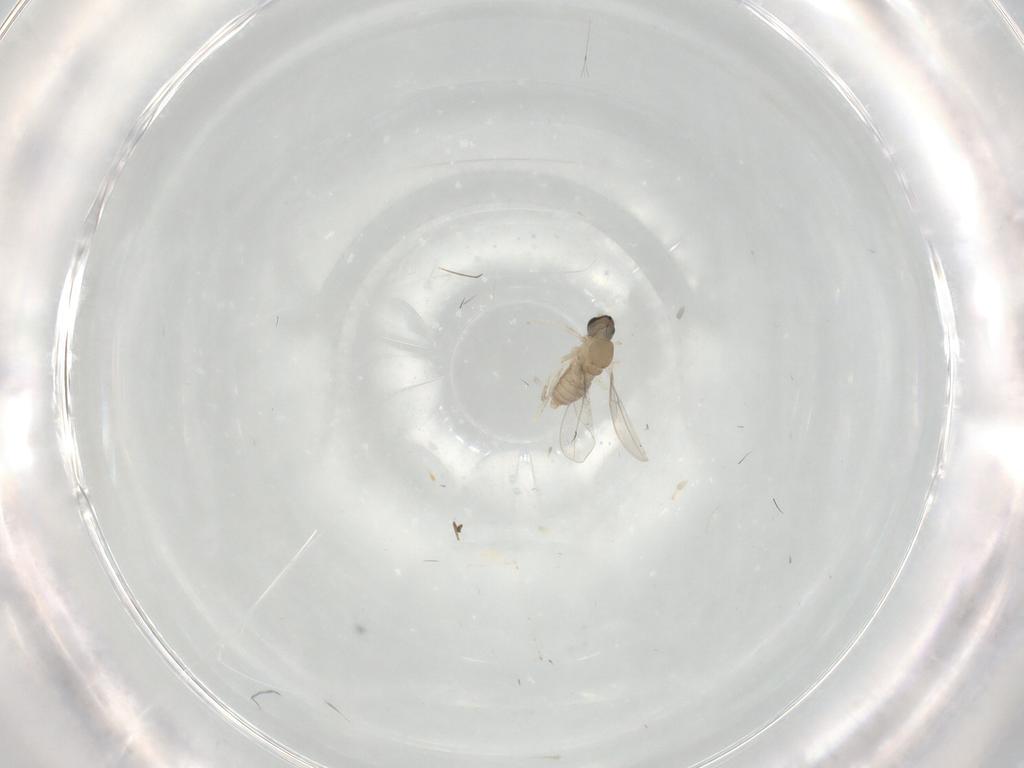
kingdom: Animalia
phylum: Arthropoda
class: Insecta
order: Diptera
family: Cecidomyiidae
